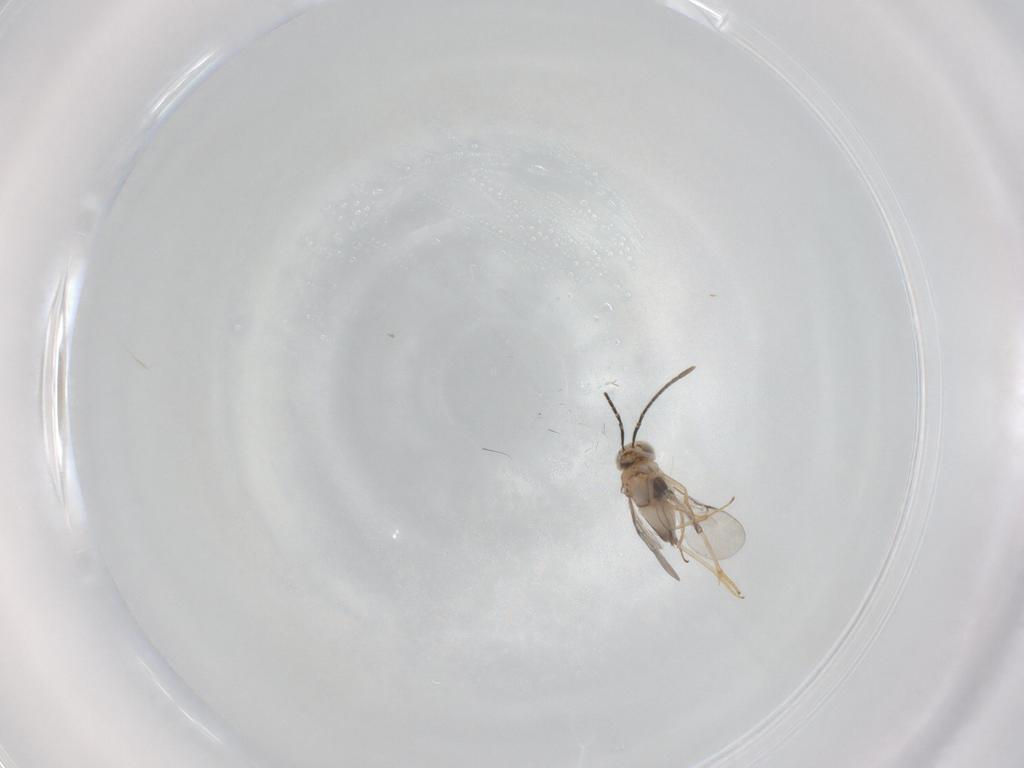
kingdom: Animalia
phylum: Arthropoda
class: Insecta
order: Hymenoptera
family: Encyrtidae
